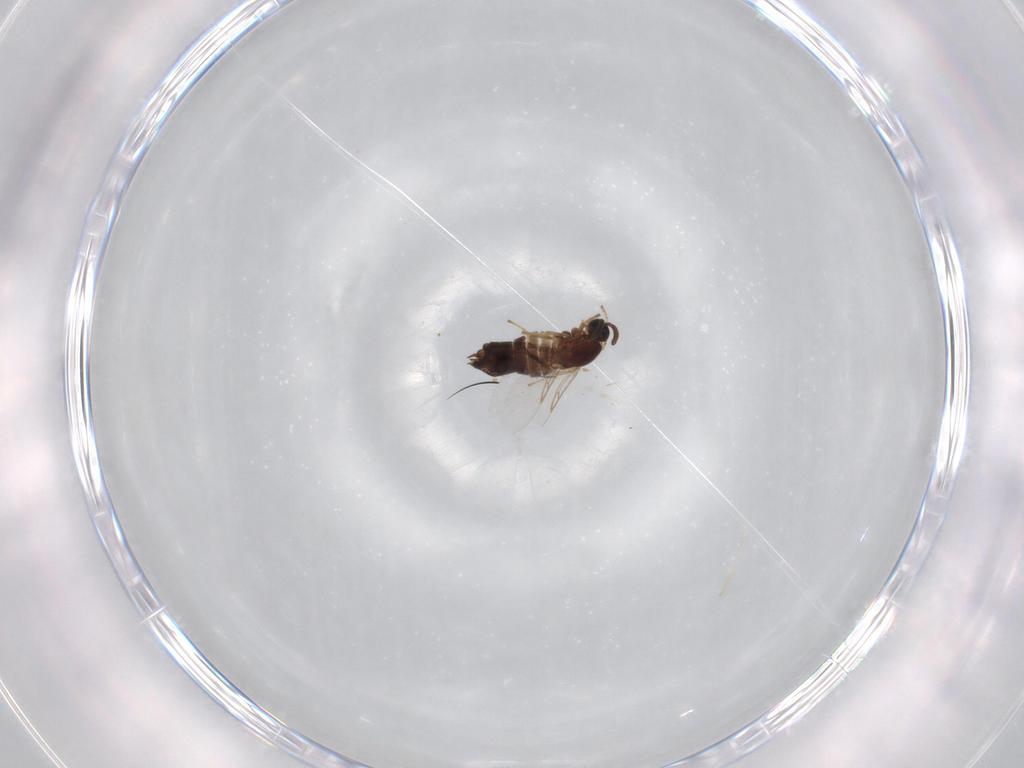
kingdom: Animalia
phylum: Arthropoda
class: Insecta
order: Diptera
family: Scatopsidae
